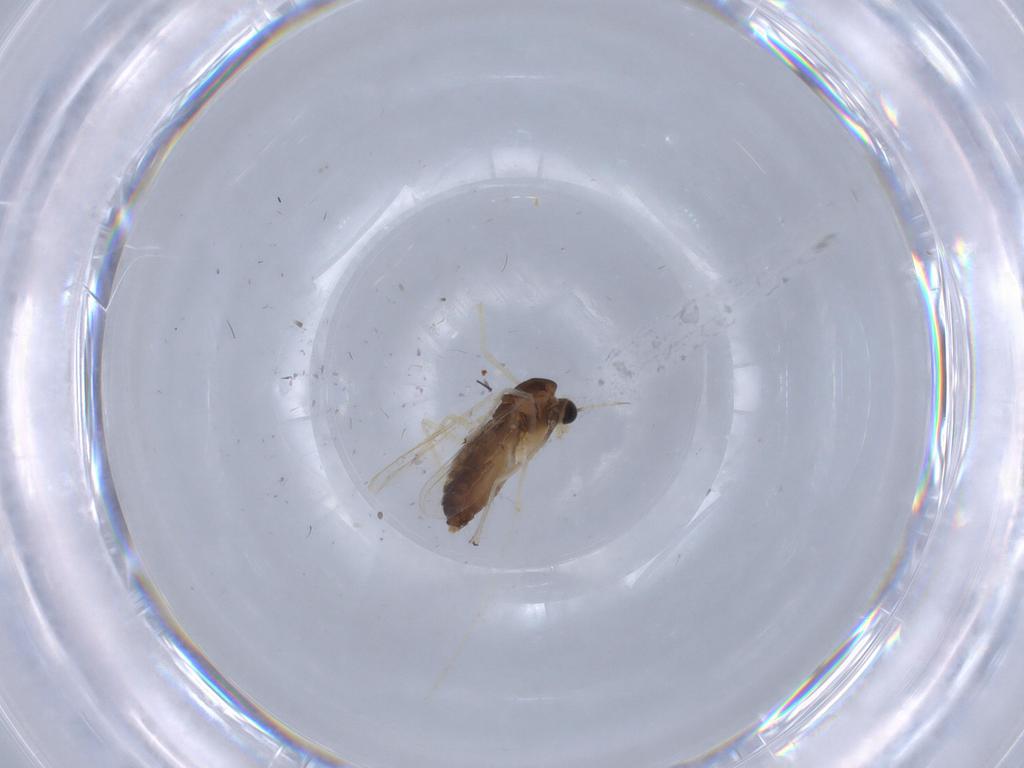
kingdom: Animalia
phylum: Arthropoda
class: Insecta
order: Diptera
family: Chironomidae
